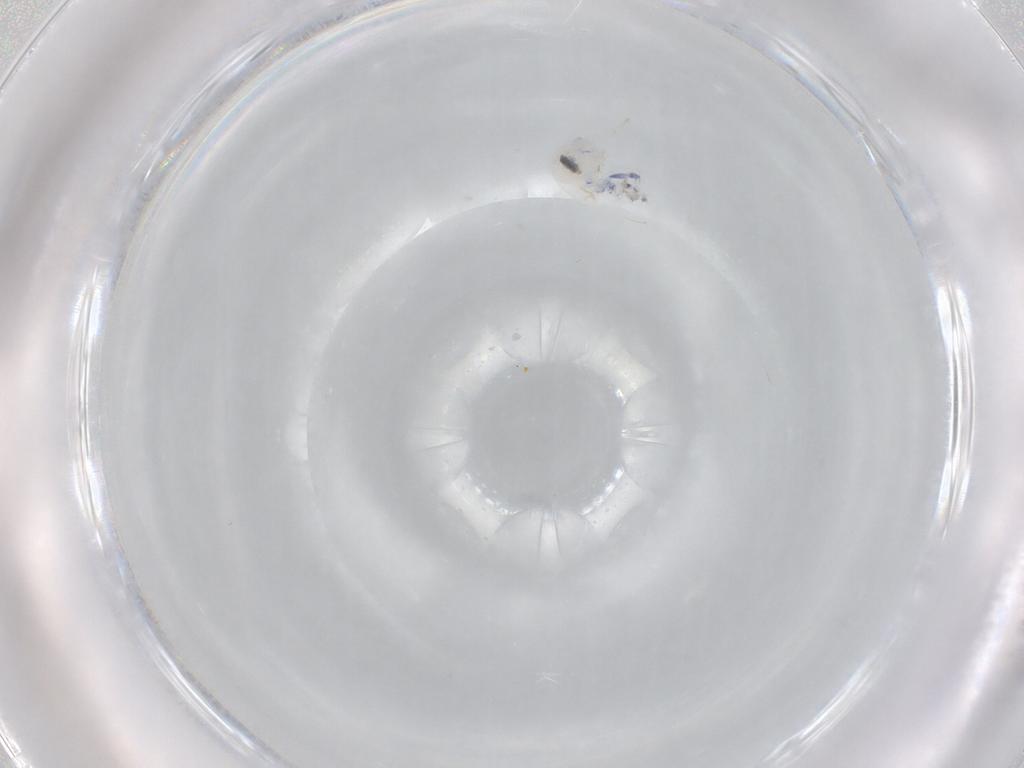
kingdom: Animalia
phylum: Arthropoda
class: Collembola
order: Entomobryomorpha
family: Entomobryidae
